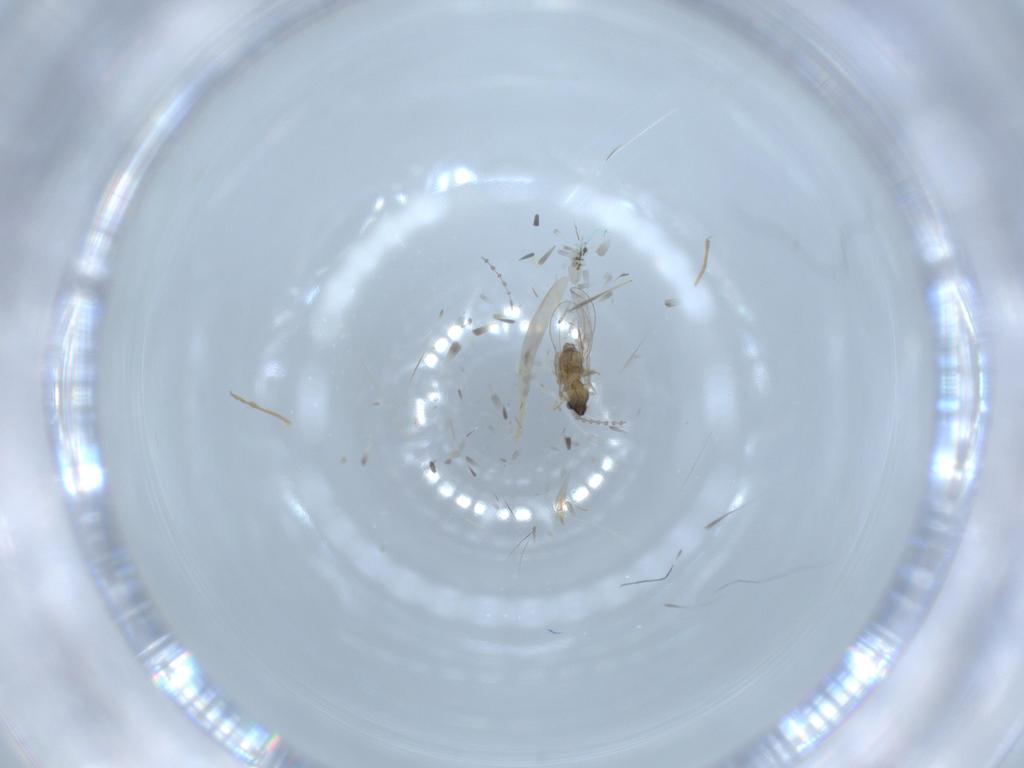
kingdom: Animalia
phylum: Arthropoda
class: Insecta
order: Diptera
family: Cecidomyiidae
